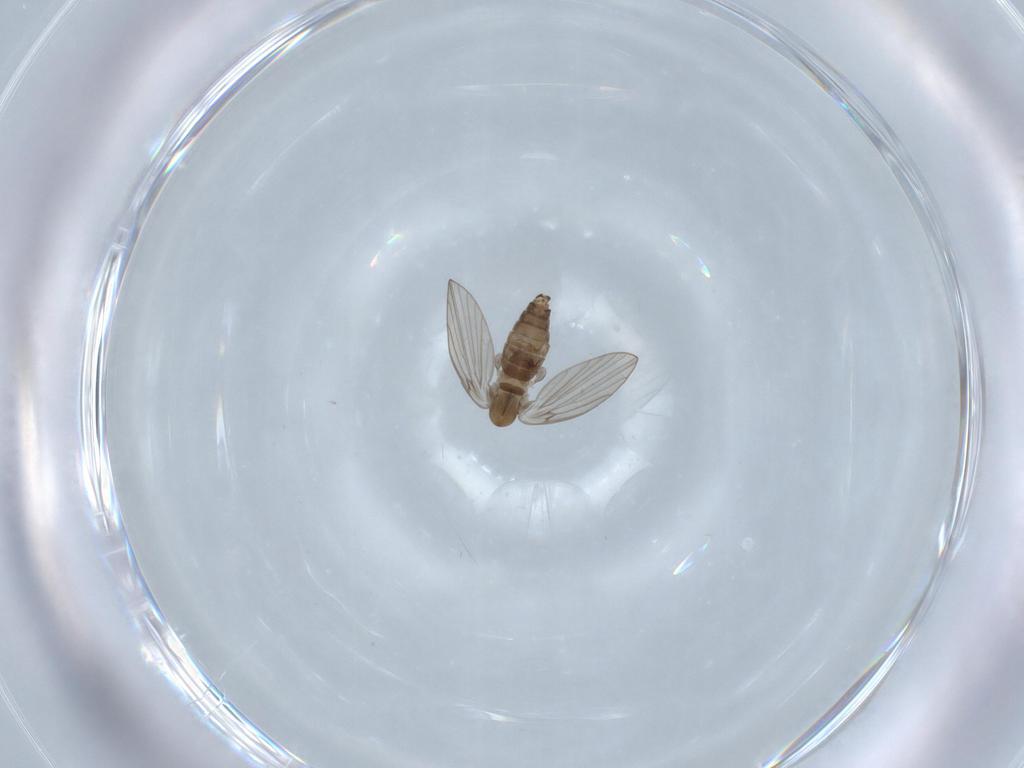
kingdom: Animalia
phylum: Arthropoda
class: Insecta
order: Diptera
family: Psychodidae
